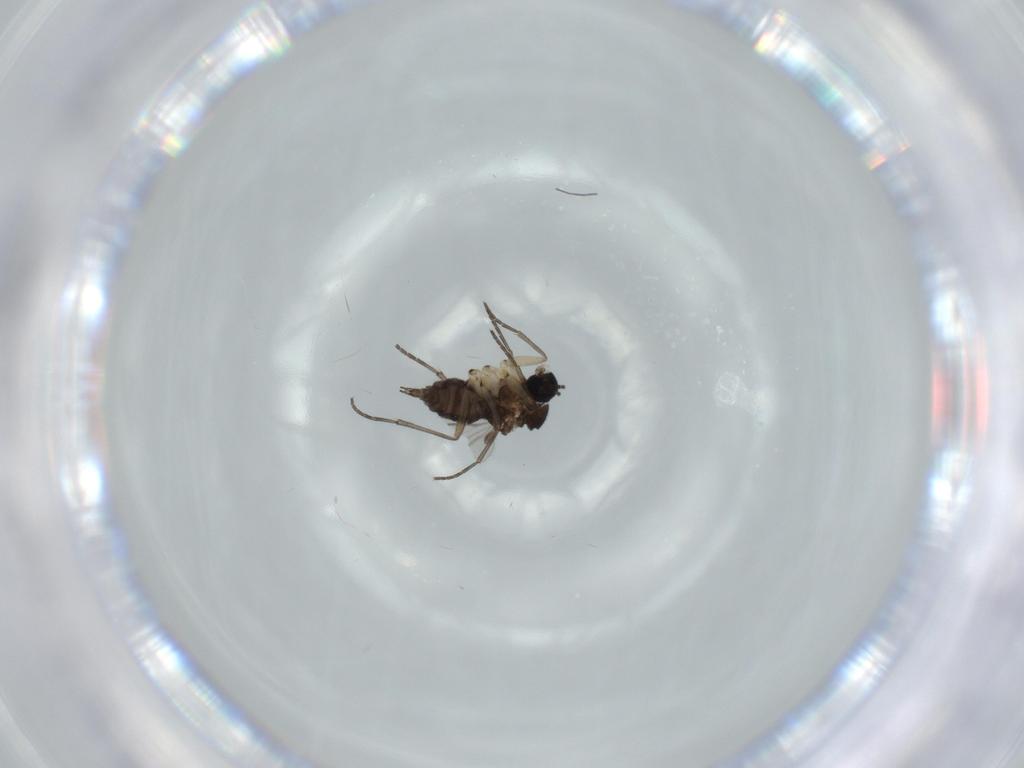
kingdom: Animalia
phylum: Arthropoda
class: Insecta
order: Diptera
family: Sciaridae
